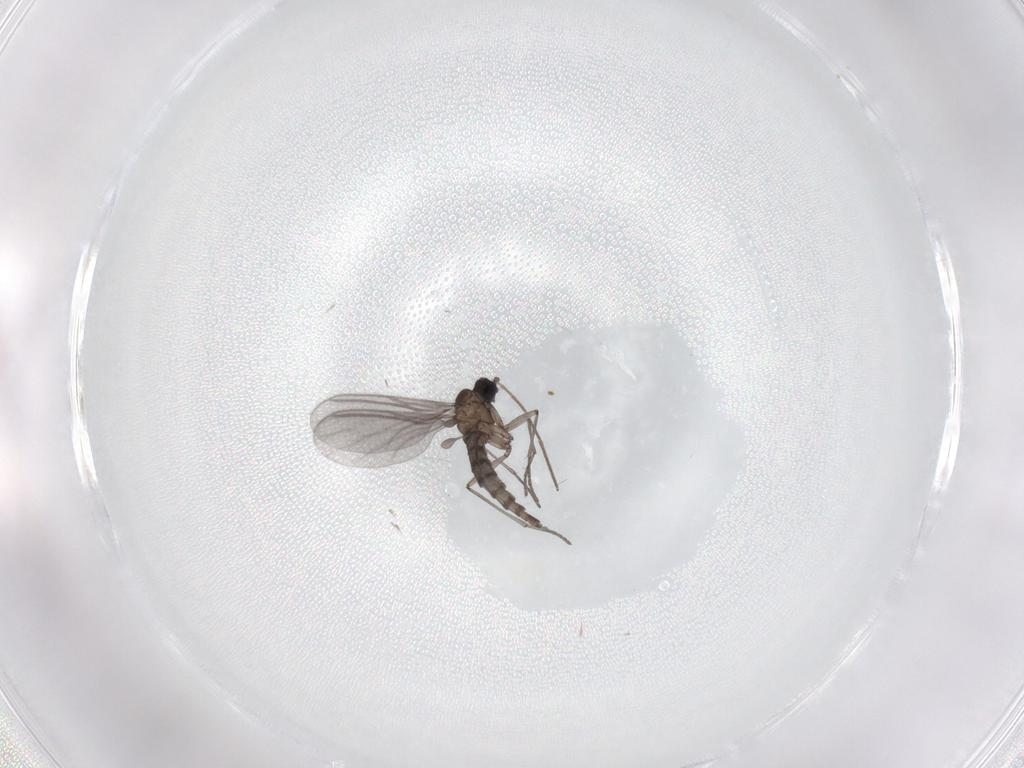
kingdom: Animalia
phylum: Arthropoda
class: Insecta
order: Diptera
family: Chironomidae
